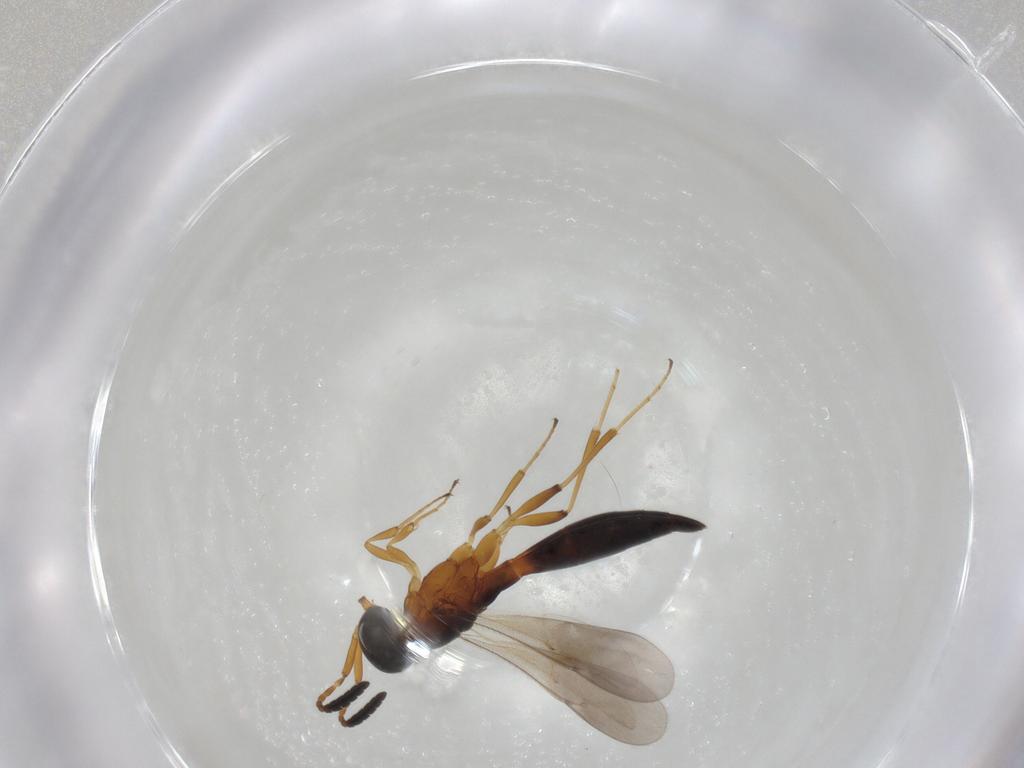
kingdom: Animalia
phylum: Arthropoda
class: Insecta
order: Hymenoptera
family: Scelionidae
